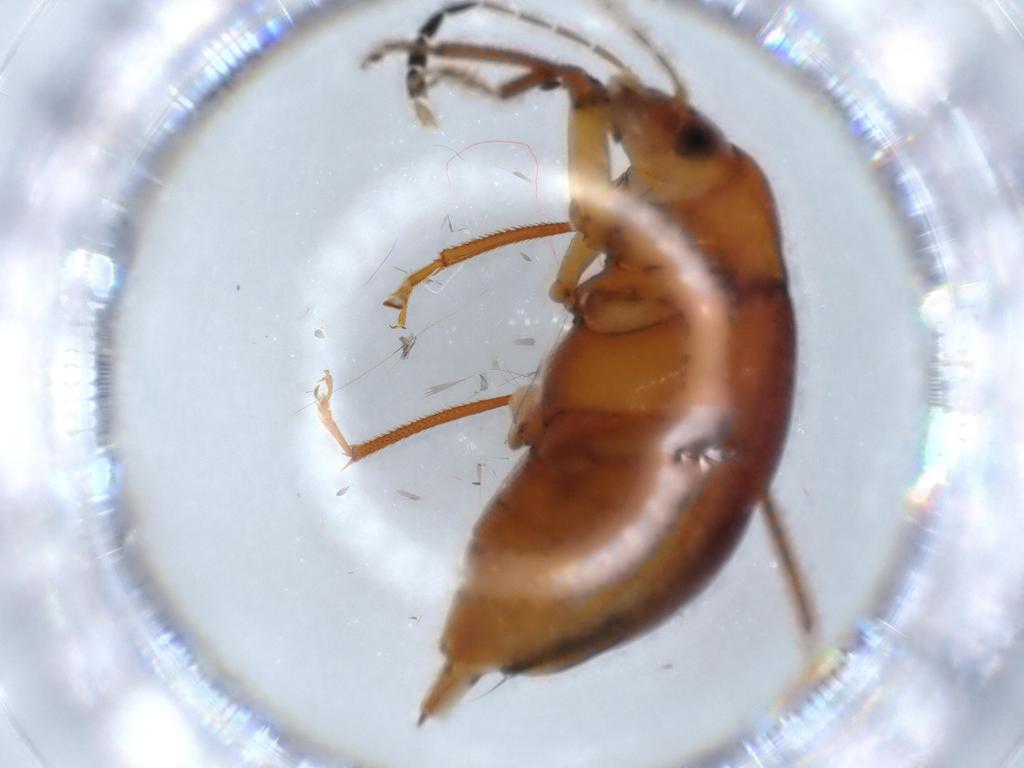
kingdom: Animalia
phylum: Arthropoda
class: Insecta
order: Coleoptera
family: Ptilodactylidae
